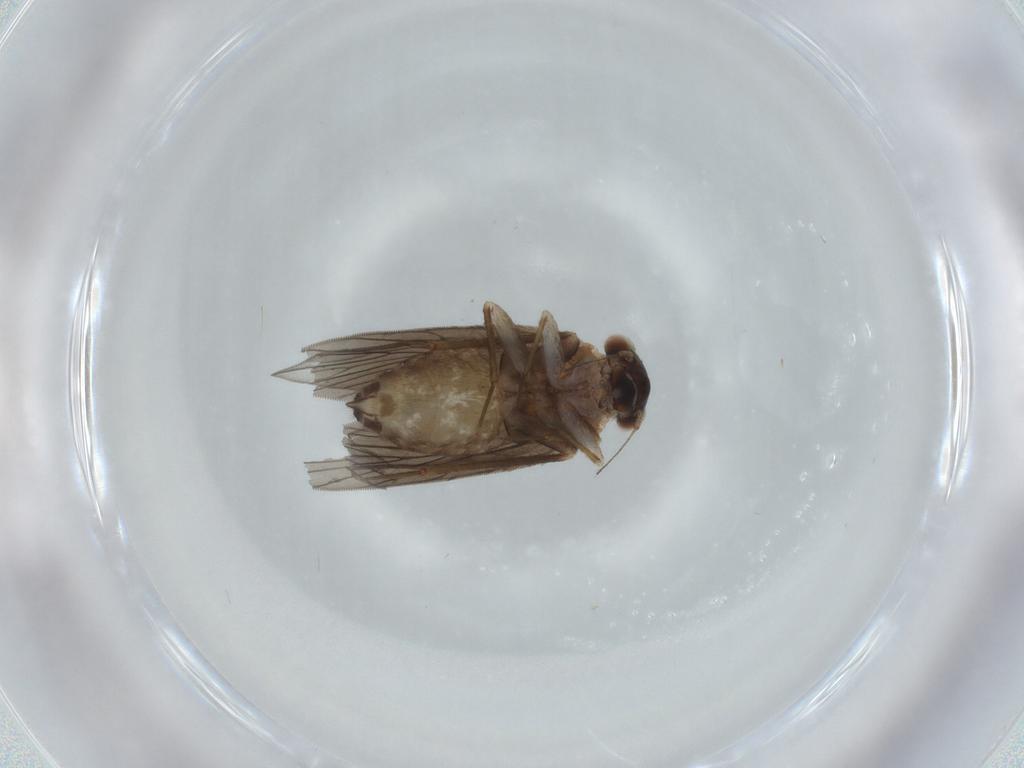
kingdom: Animalia
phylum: Arthropoda
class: Insecta
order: Psocodea
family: Lepidopsocidae
